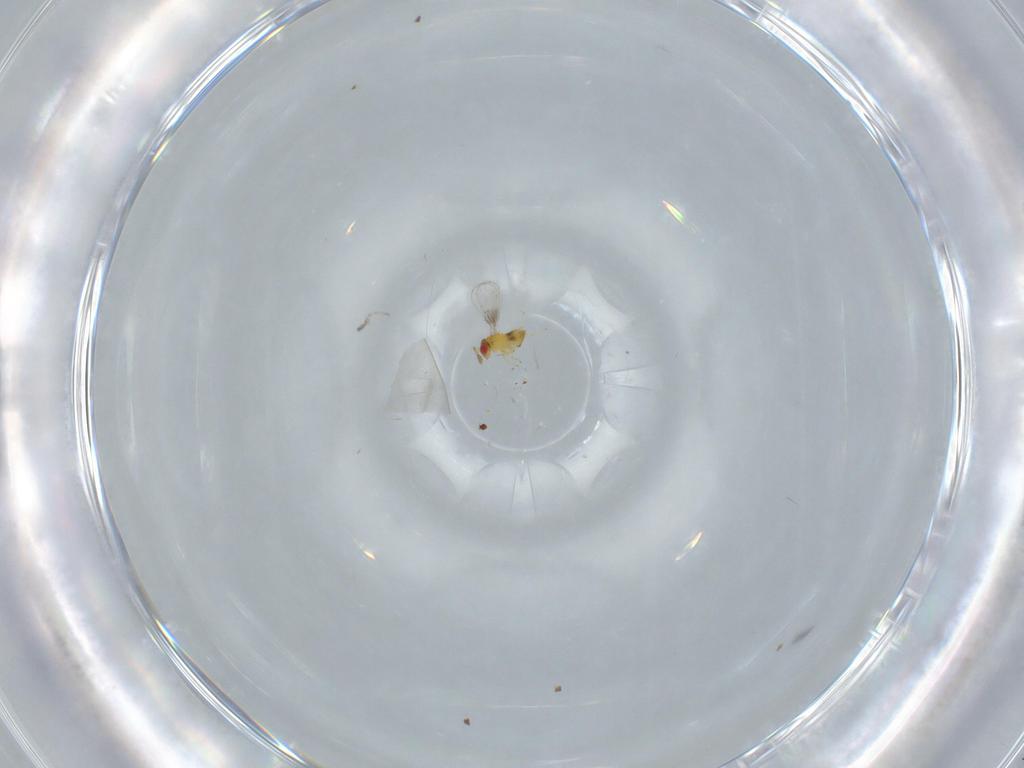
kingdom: Animalia
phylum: Arthropoda
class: Insecta
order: Hymenoptera
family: Trichogrammatidae
